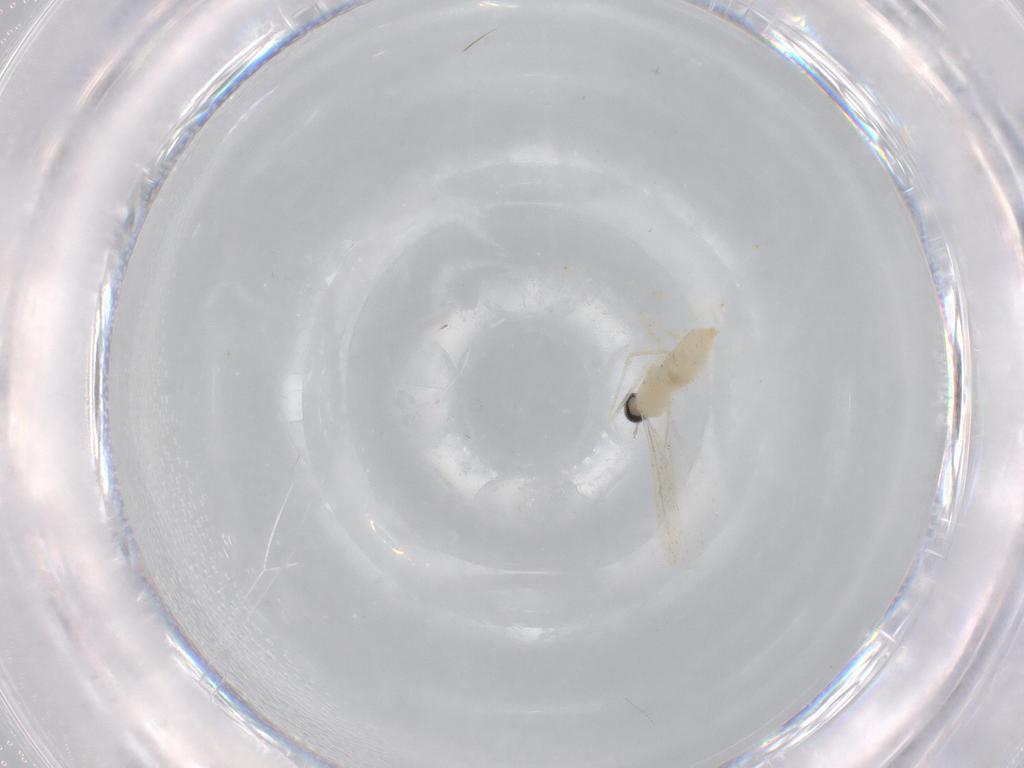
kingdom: Animalia
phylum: Arthropoda
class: Insecta
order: Diptera
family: Cecidomyiidae
